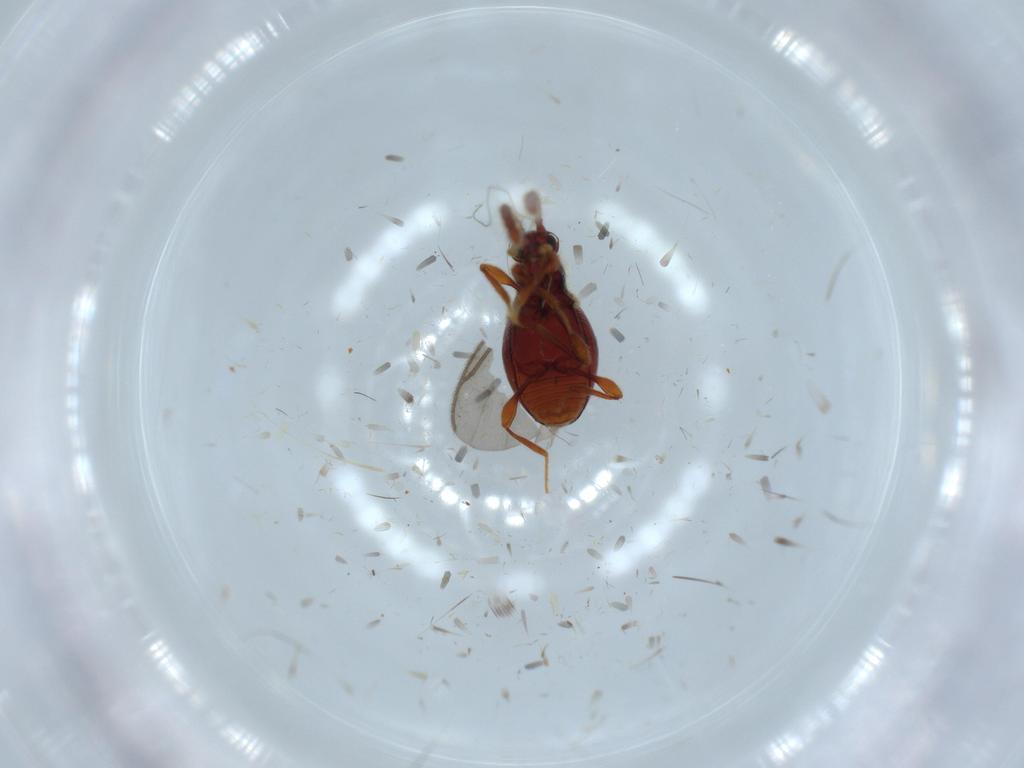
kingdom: Animalia
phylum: Arthropoda
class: Insecta
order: Coleoptera
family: Staphylinidae
